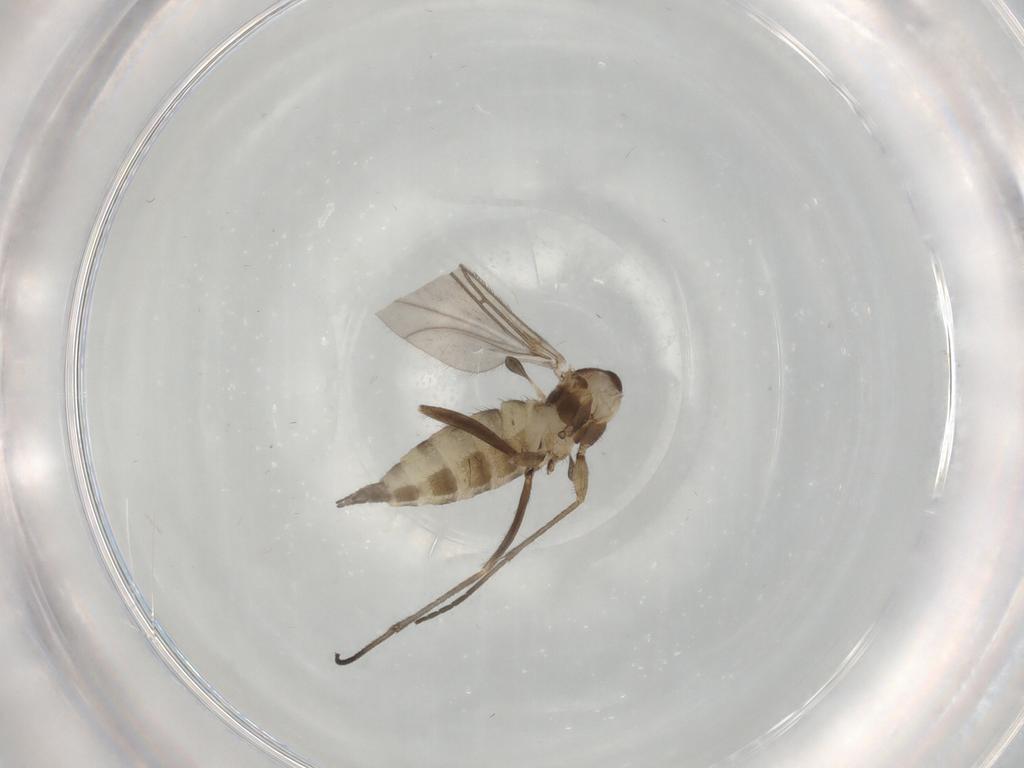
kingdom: Animalia
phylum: Arthropoda
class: Insecta
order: Diptera
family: Sciaridae
